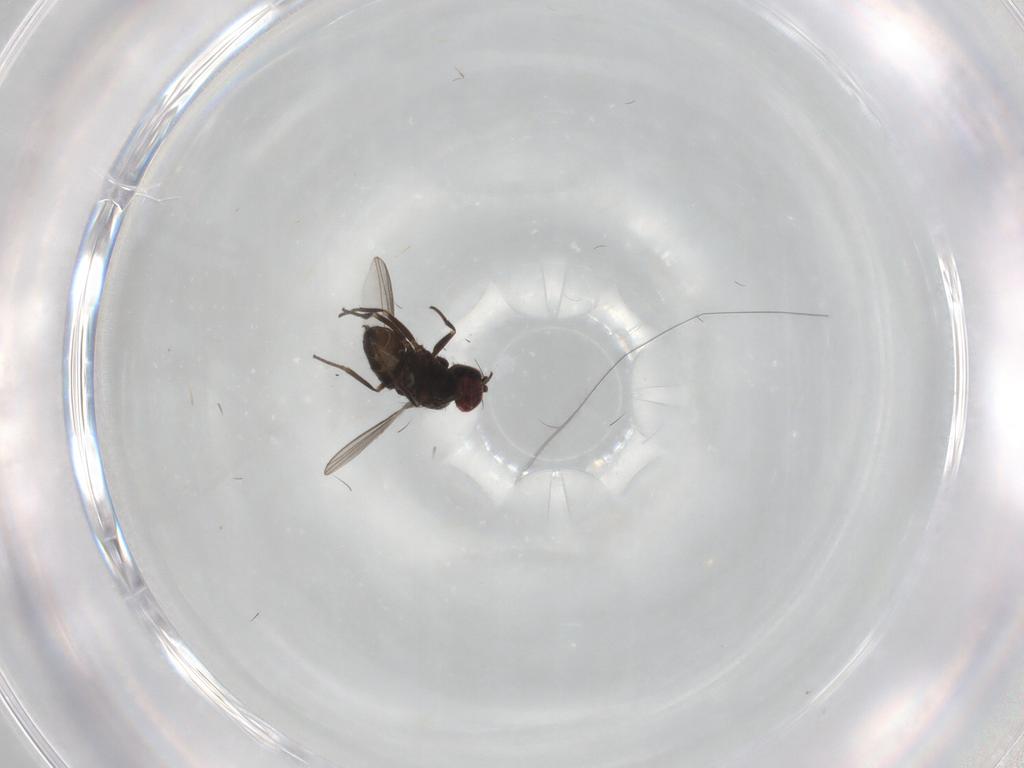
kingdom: Animalia
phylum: Arthropoda
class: Insecta
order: Diptera
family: Dolichopodidae
